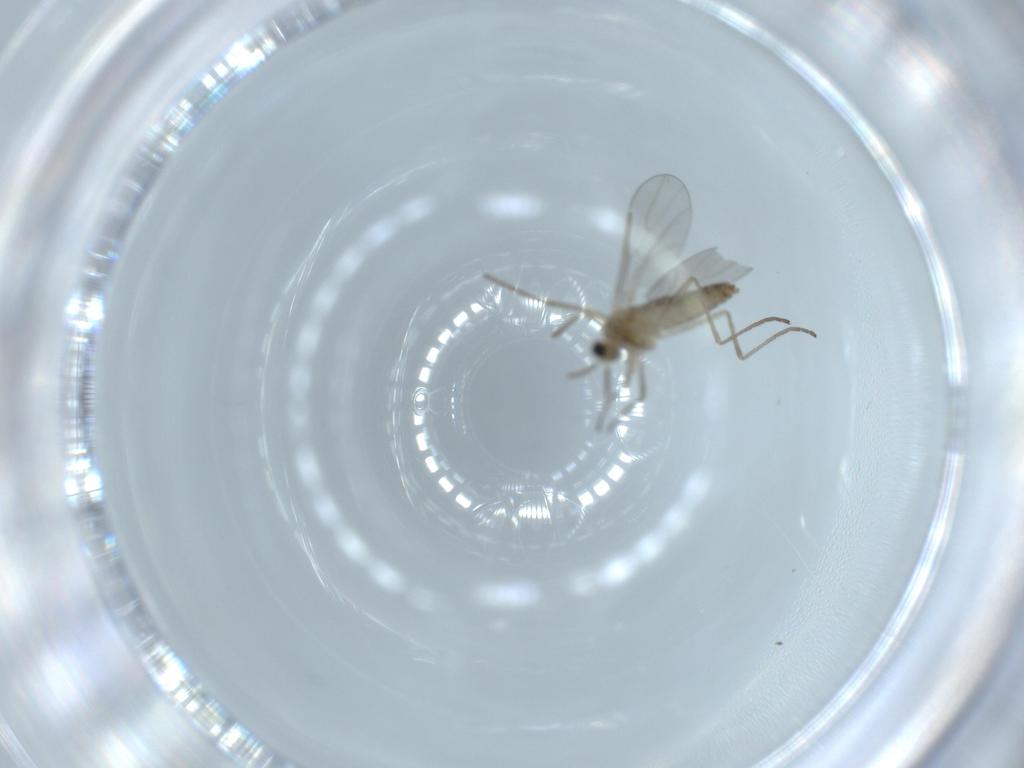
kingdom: Animalia
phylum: Arthropoda
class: Insecta
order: Diptera
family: Cecidomyiidae
